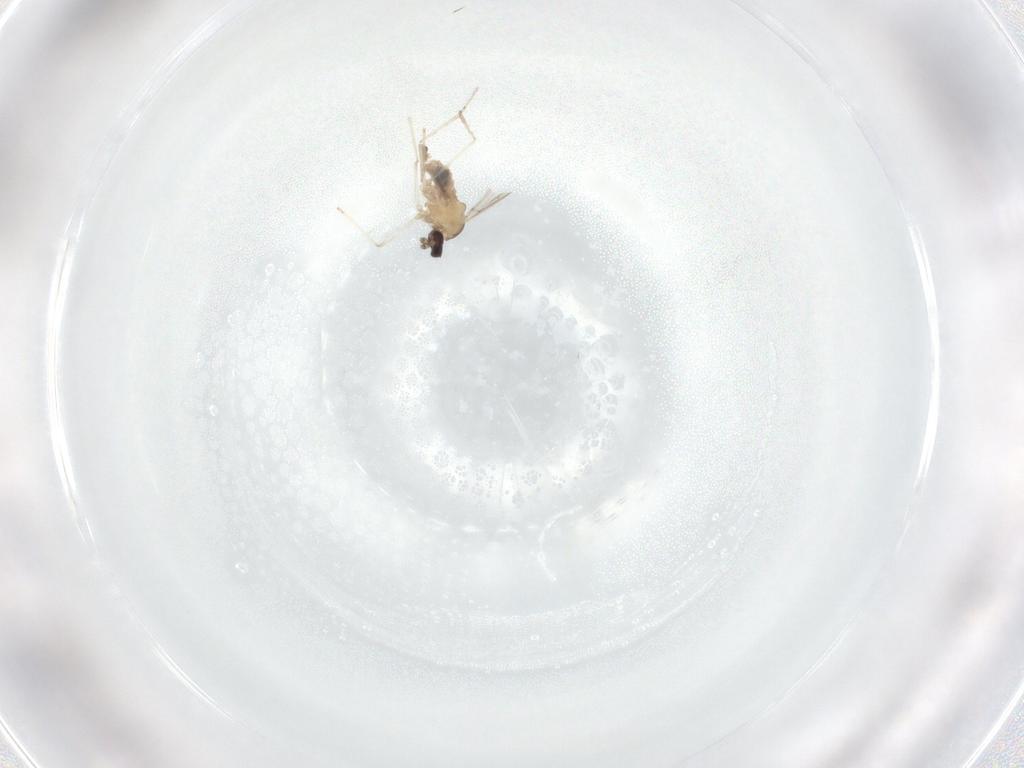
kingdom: Animalia
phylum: Arthropoda
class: Insecta
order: Diptera
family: Cecidomyiidae
